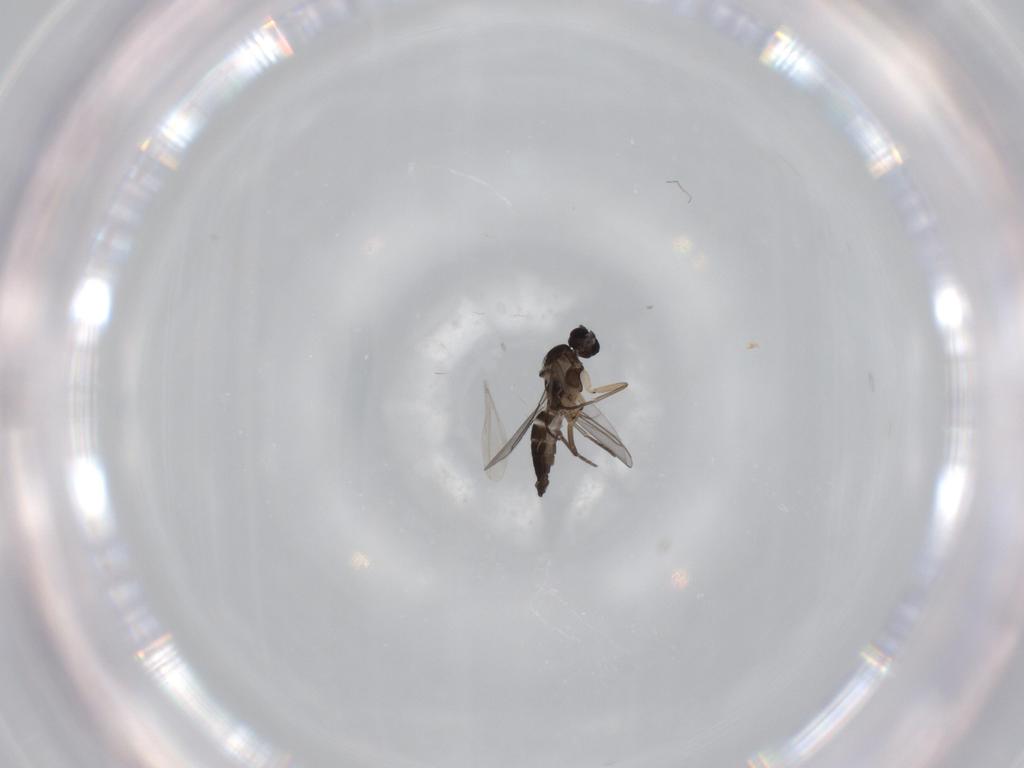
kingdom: Animalia
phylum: Arthropoda
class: Insecta
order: Diptera
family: Sciaridae
